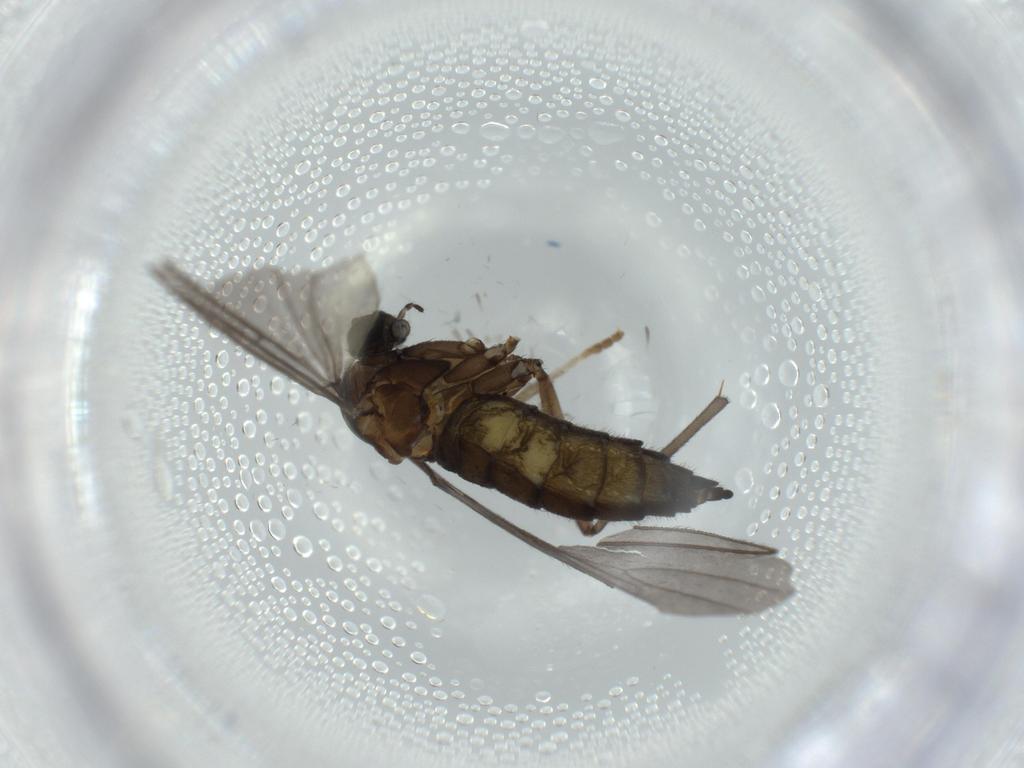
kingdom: Animalia
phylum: Arthropoda
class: Insecta
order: Diptera
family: Sciaridae
